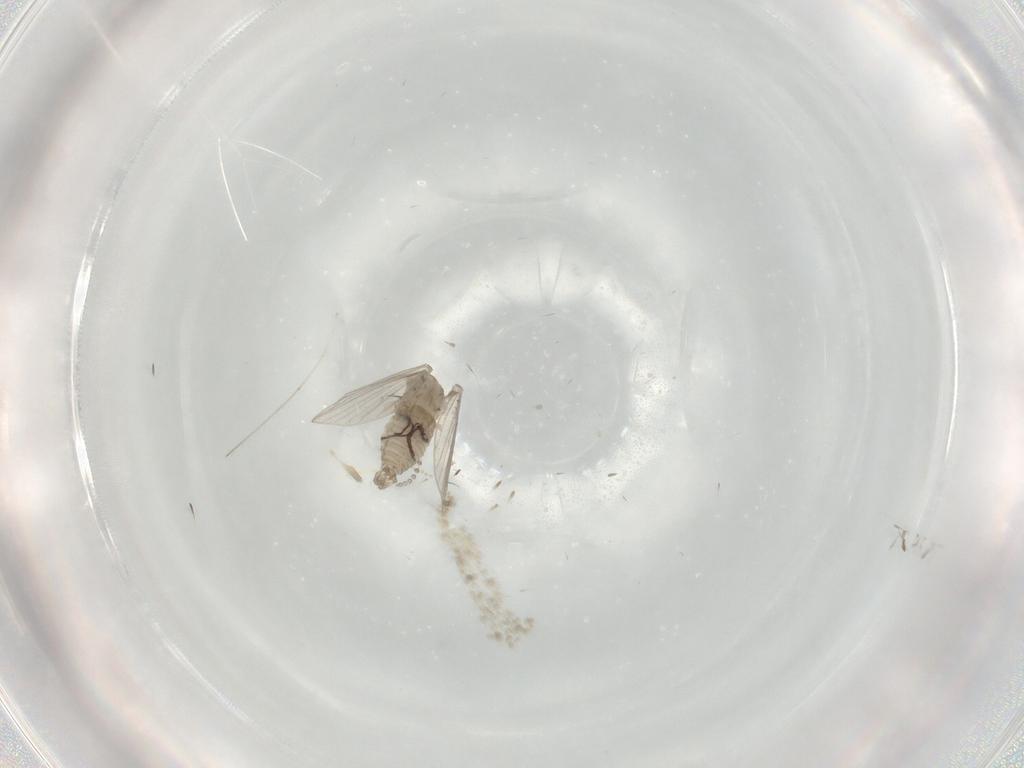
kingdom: Animalia
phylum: Arthropoda
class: Insecta
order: Diptera
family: Psychodidae
